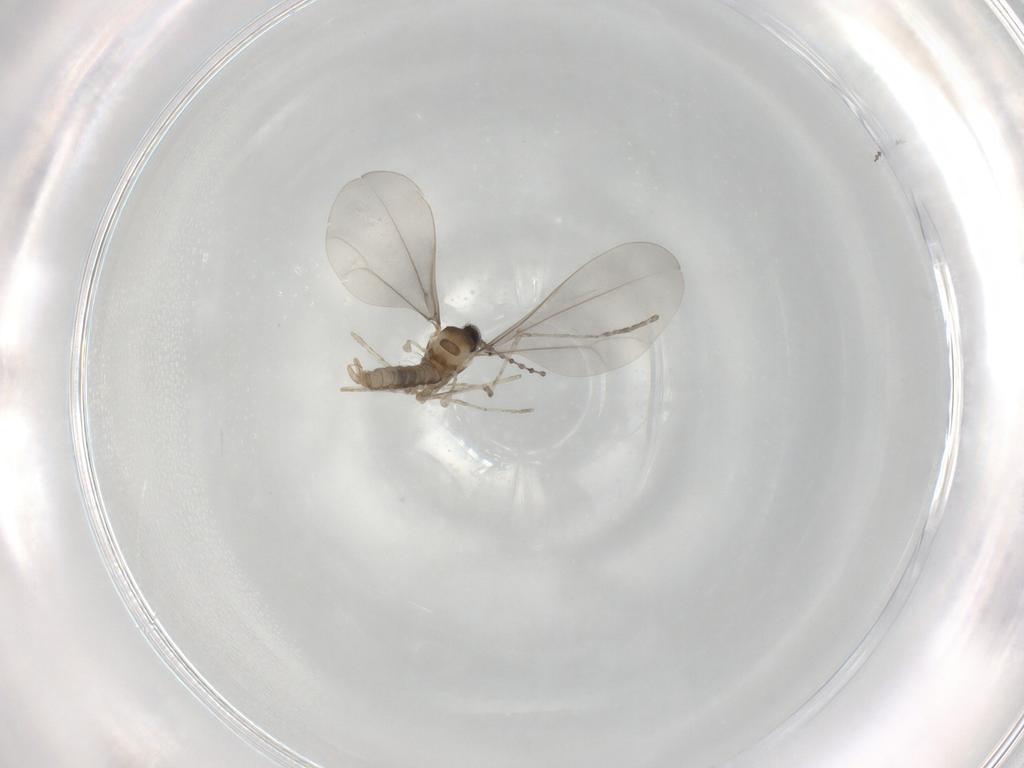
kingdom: Animalia
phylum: Arthropoda
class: Insecta
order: Diptera
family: Cecidomyiidae
